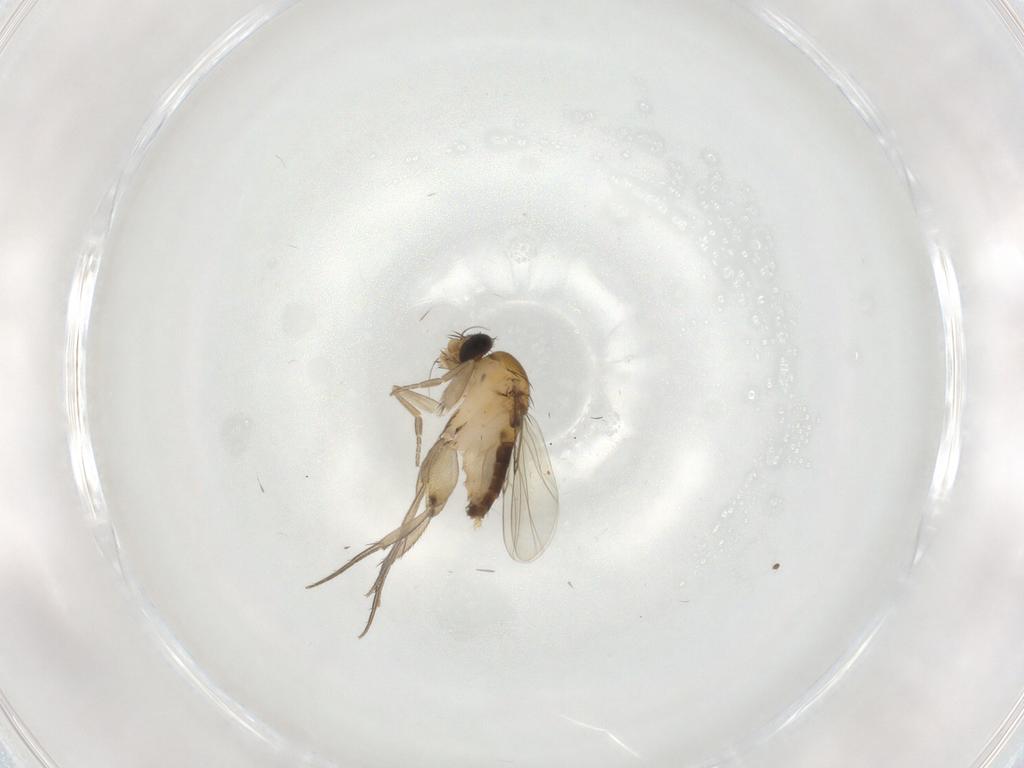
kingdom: Animalia
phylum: Arthropoda
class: Insecta
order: Diptera
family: Phoridae
